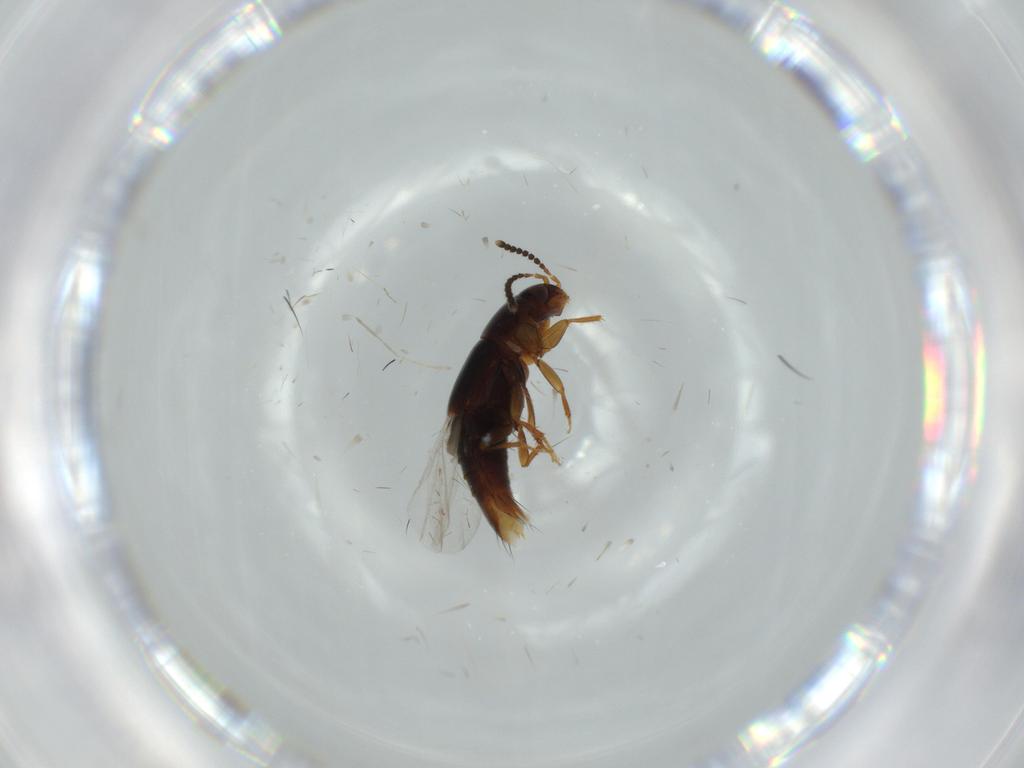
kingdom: Animalia
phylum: Arthropoda
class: Insecta
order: Coleoptera
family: Staphylinidae
